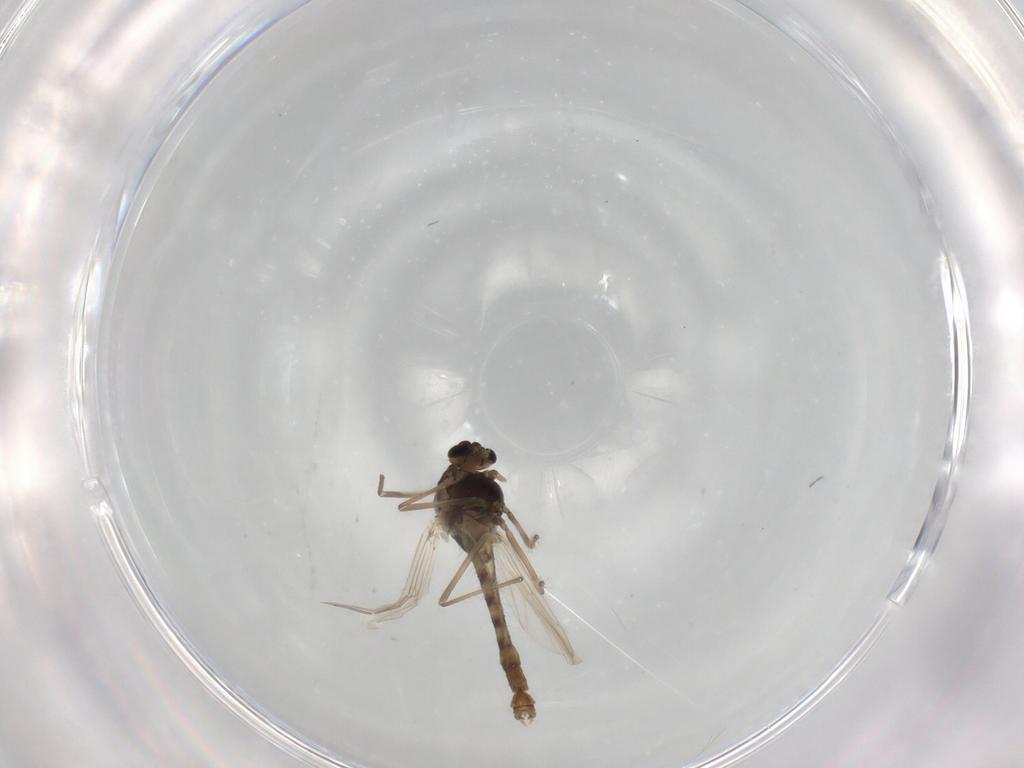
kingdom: Animalia
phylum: Arthropoda
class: Insecta
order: Diptera
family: Chironomidae
